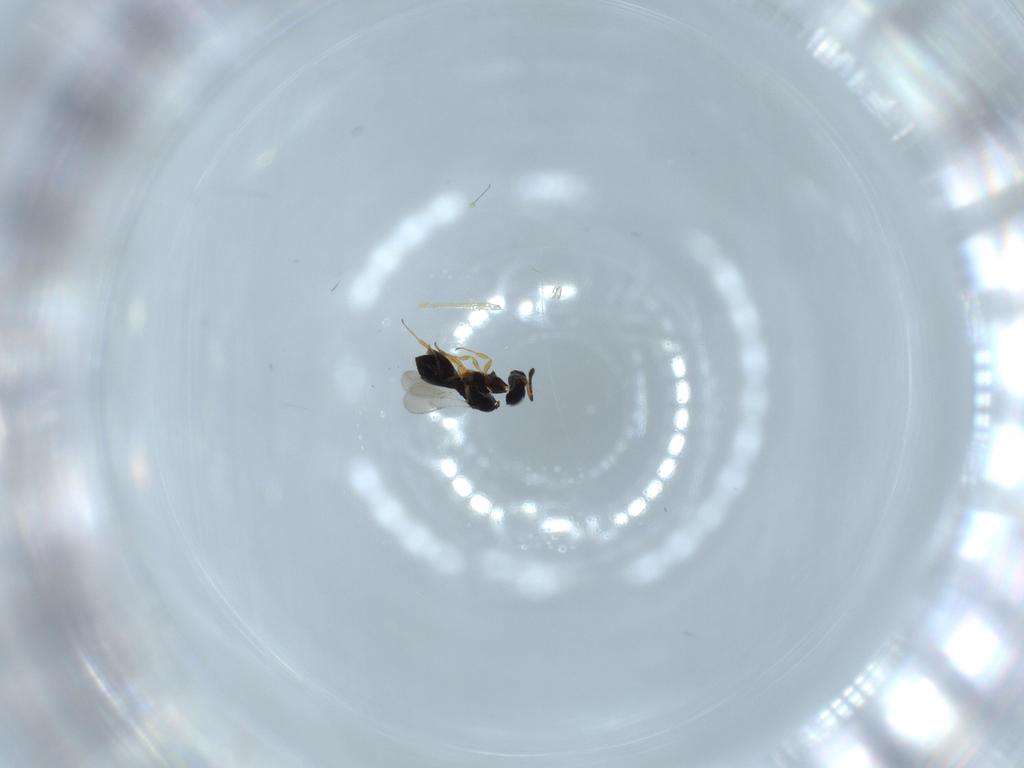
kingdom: Animalia
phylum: Arthropoda
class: Insecta
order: Hymenoptera
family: Scelionidae
